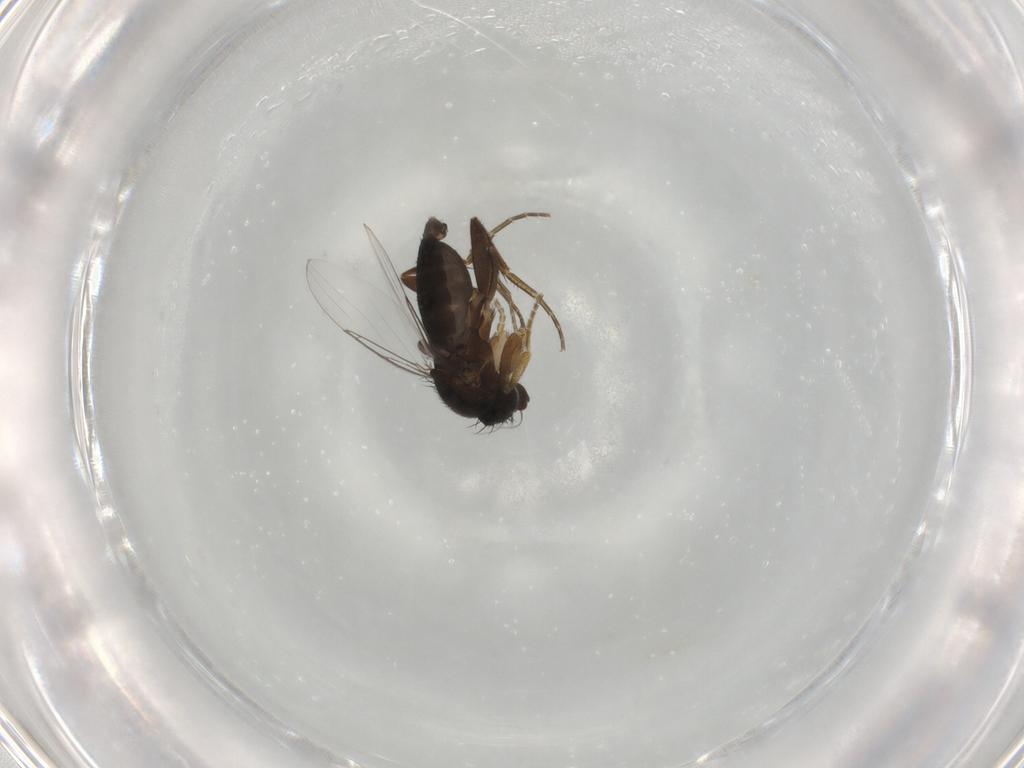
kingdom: Animalia
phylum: Arthropoda
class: Insecta
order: Diptera
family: Phoridae
